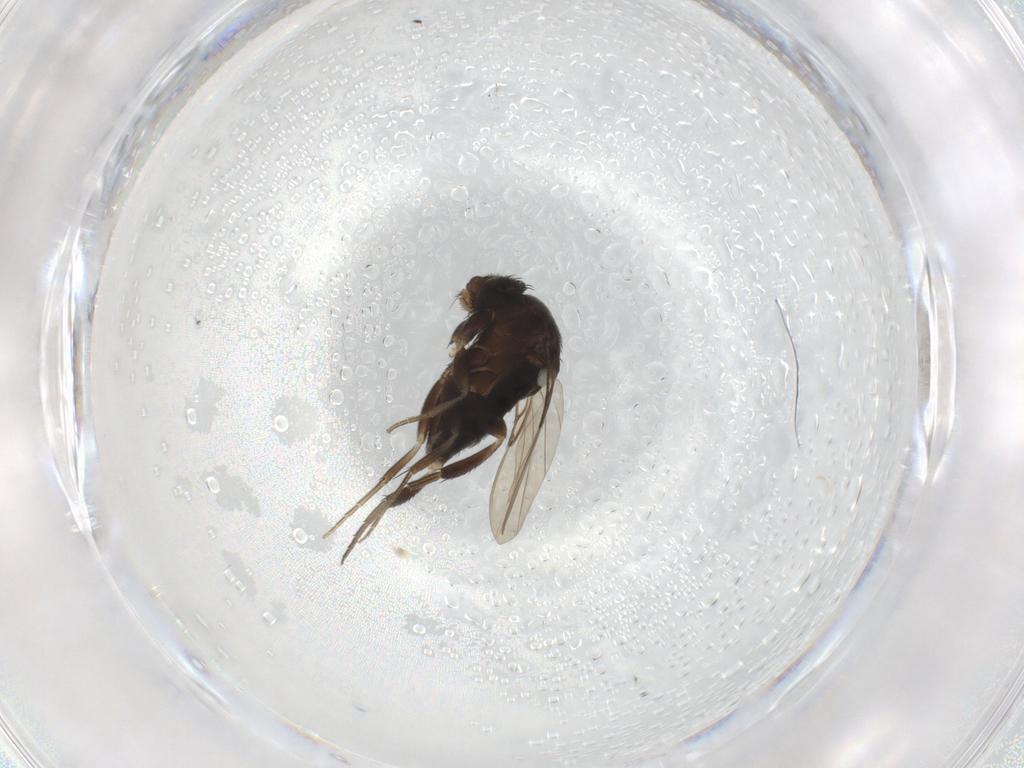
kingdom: Animalia
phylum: Arthropoda
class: Insecta
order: Diptera
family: Phoridae
